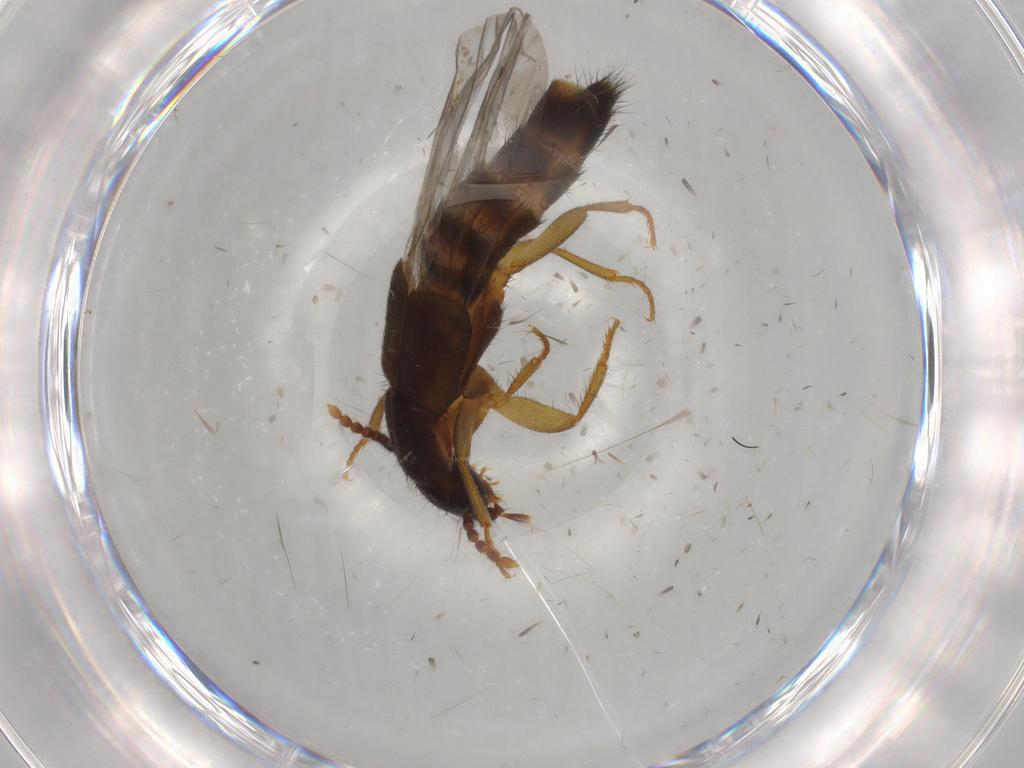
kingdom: Animalia
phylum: Arthropoda
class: Insecta
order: Coleoptera
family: Staphylinidae
